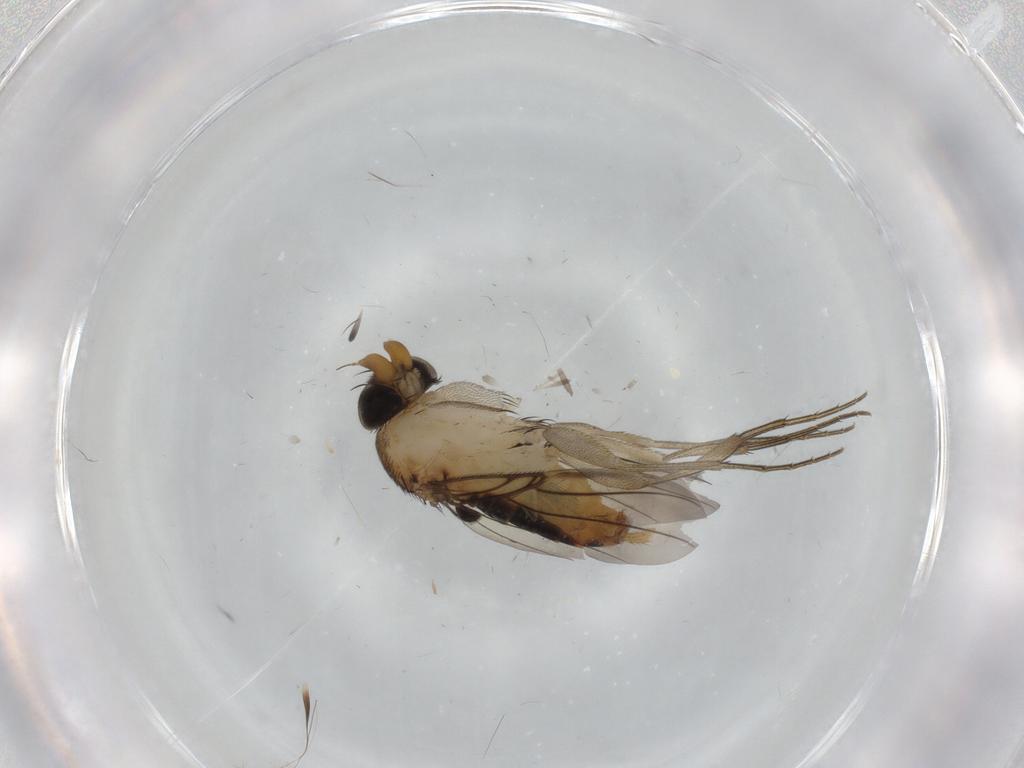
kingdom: Animalia
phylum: Arthropoda
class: Insecta
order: Diptera
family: Cecidomyiidae
